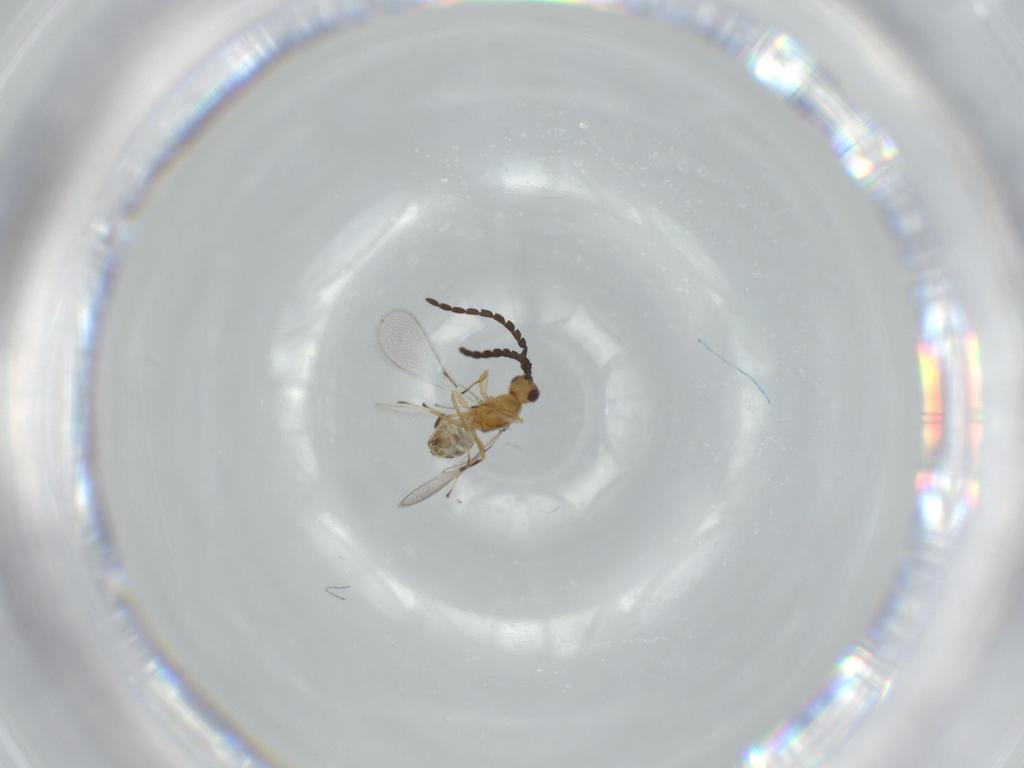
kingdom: Animalia
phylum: Arthropoda
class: Insecta
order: Hymenoptera
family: Mymaridae
